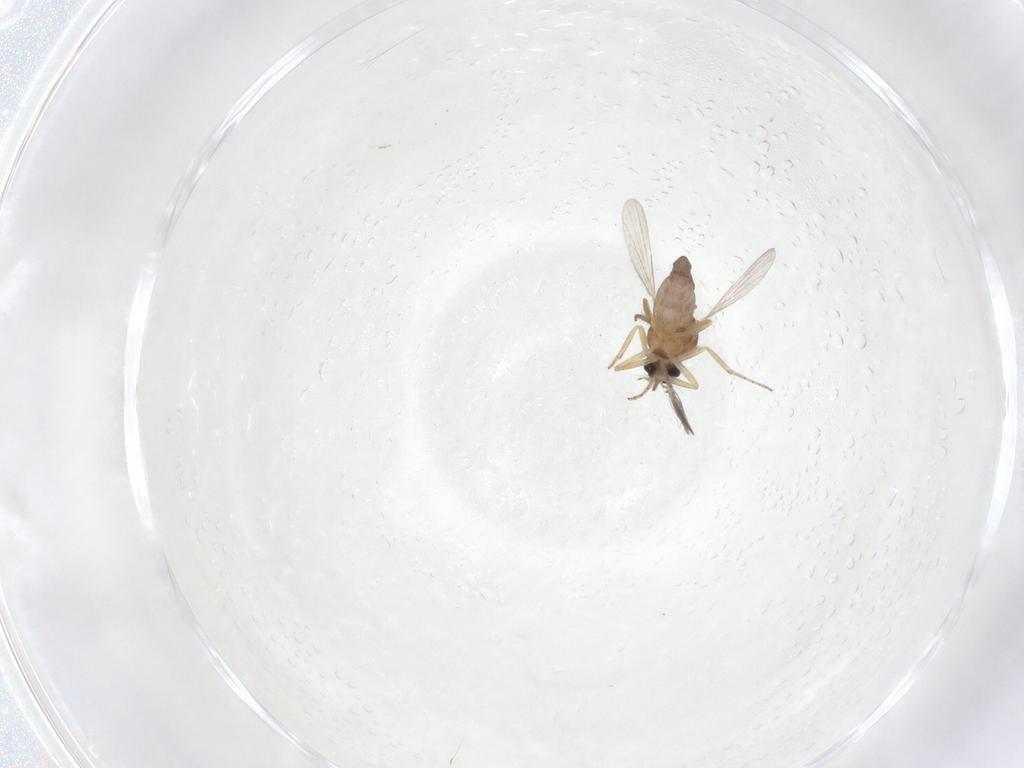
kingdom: Animalia
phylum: Arthropoda
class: Insecta
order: Diptera
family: Ceratopogonidae
